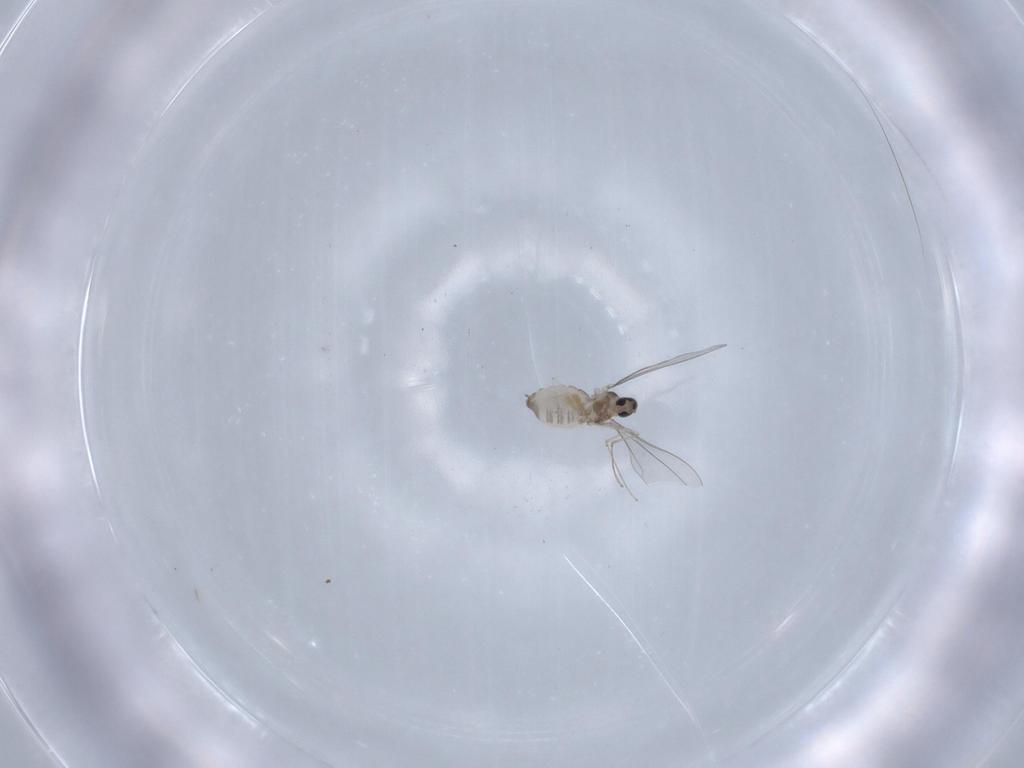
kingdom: Animalia
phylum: Arthropoda
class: Insecta
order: Diptera
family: Cecidomyiidae
